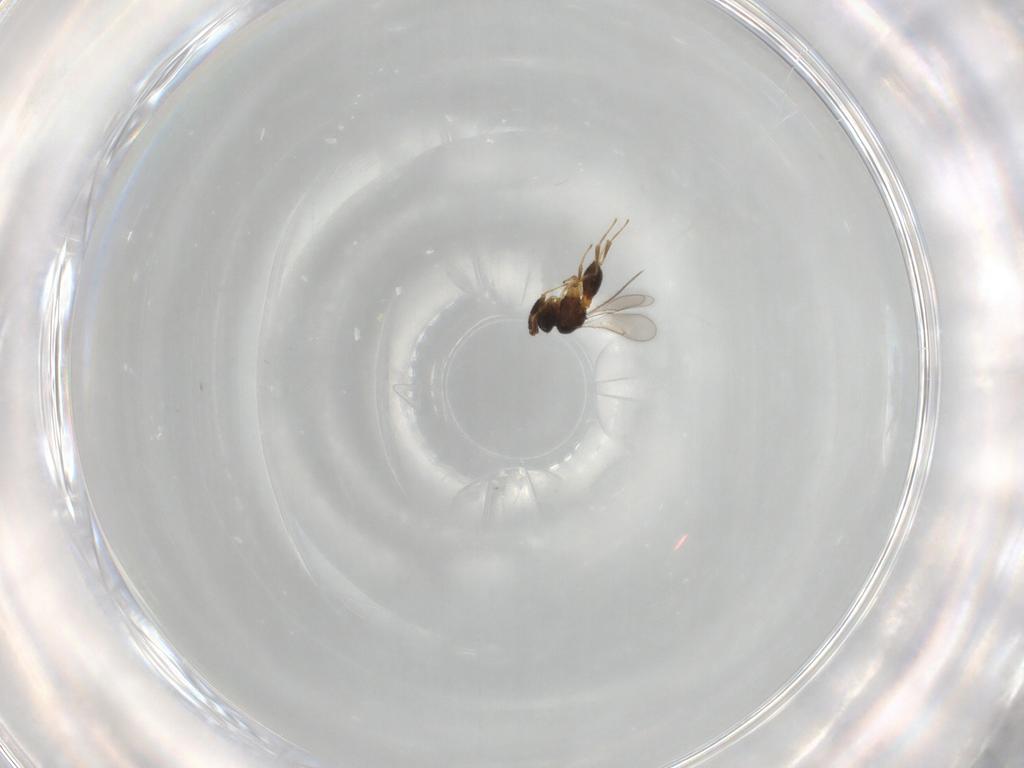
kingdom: Animalia
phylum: Arthropoda
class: Insecta
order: Hymenoptera
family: Scelionidae
